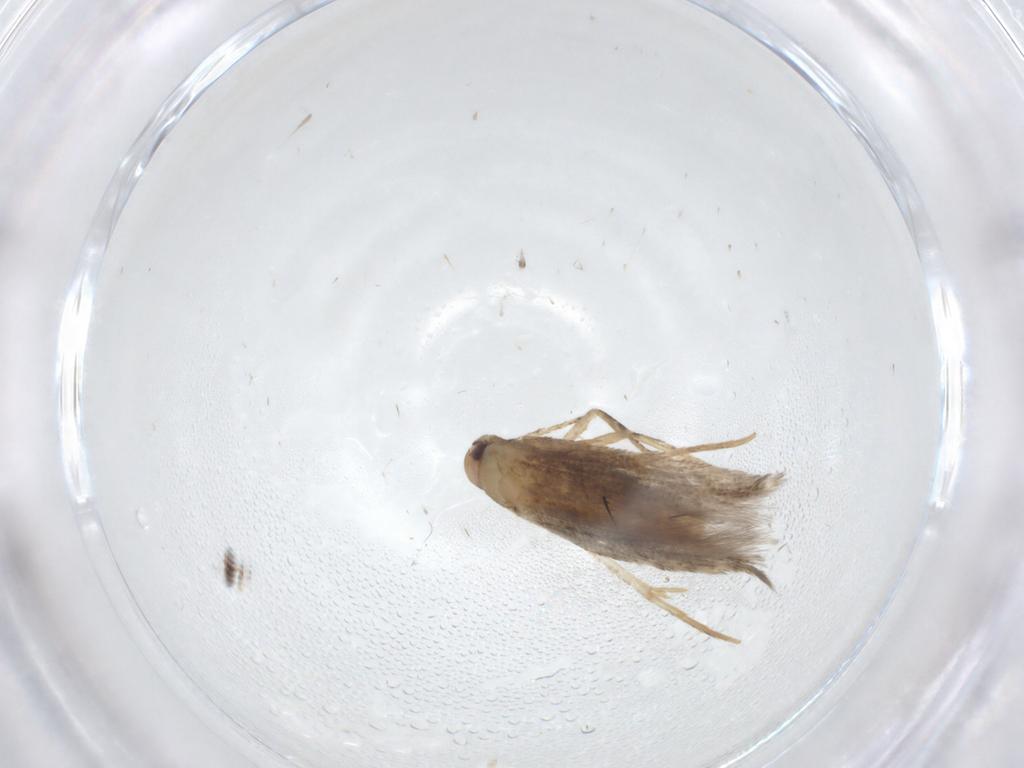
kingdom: Animalia
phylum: Arthropoda
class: Insecta
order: Lepidoptera
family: Cosmopterigidae
